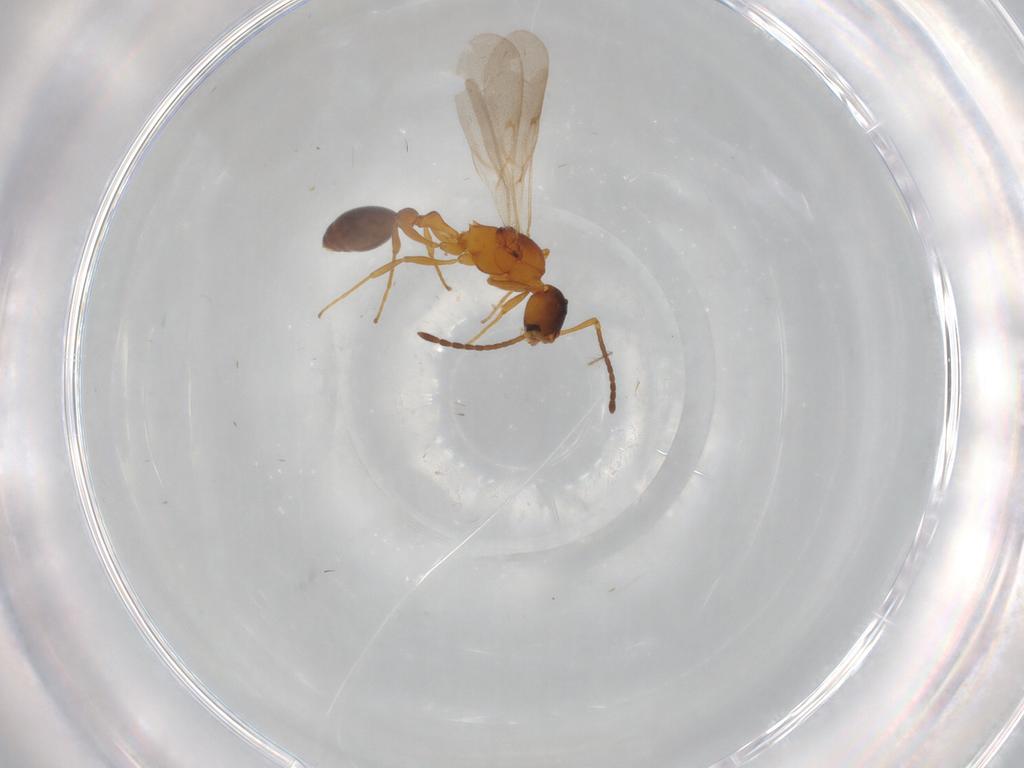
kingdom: Animalia
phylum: Arthropoda
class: Insecta
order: Hymenoptera
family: Formicidae
